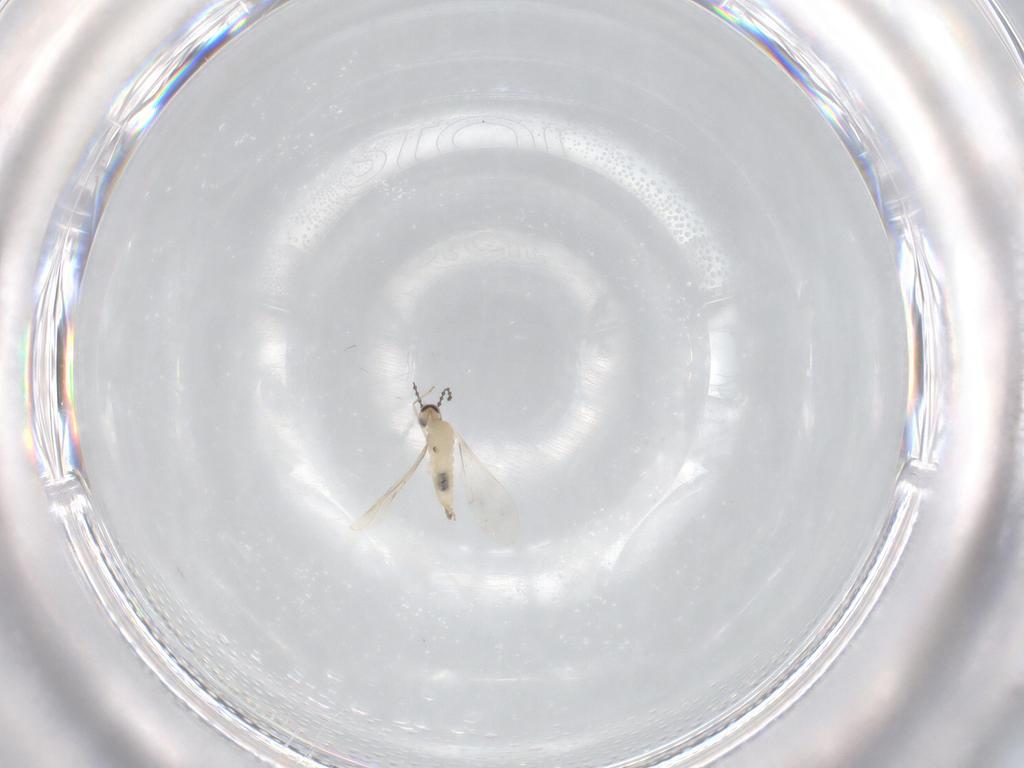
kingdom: Animalia
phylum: Arthropoda
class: Insecta
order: Diptera
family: Cecidomyiidae
